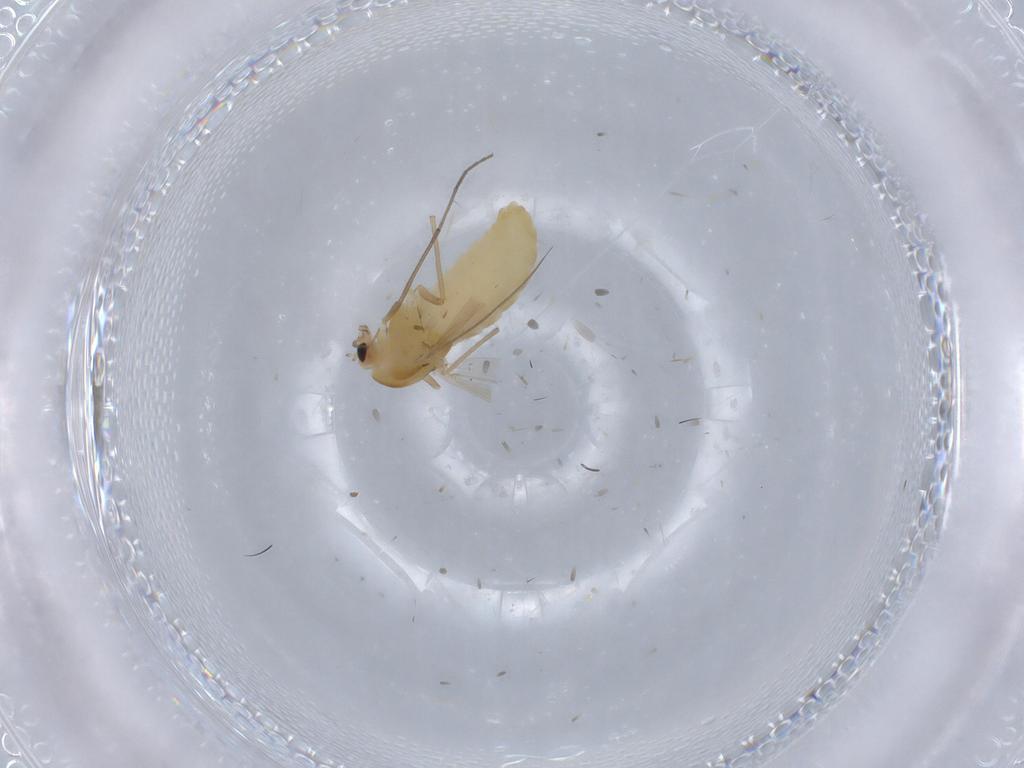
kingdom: Animalia
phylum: Arthropoda
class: Insecta
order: Diptera
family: Chironomidae
